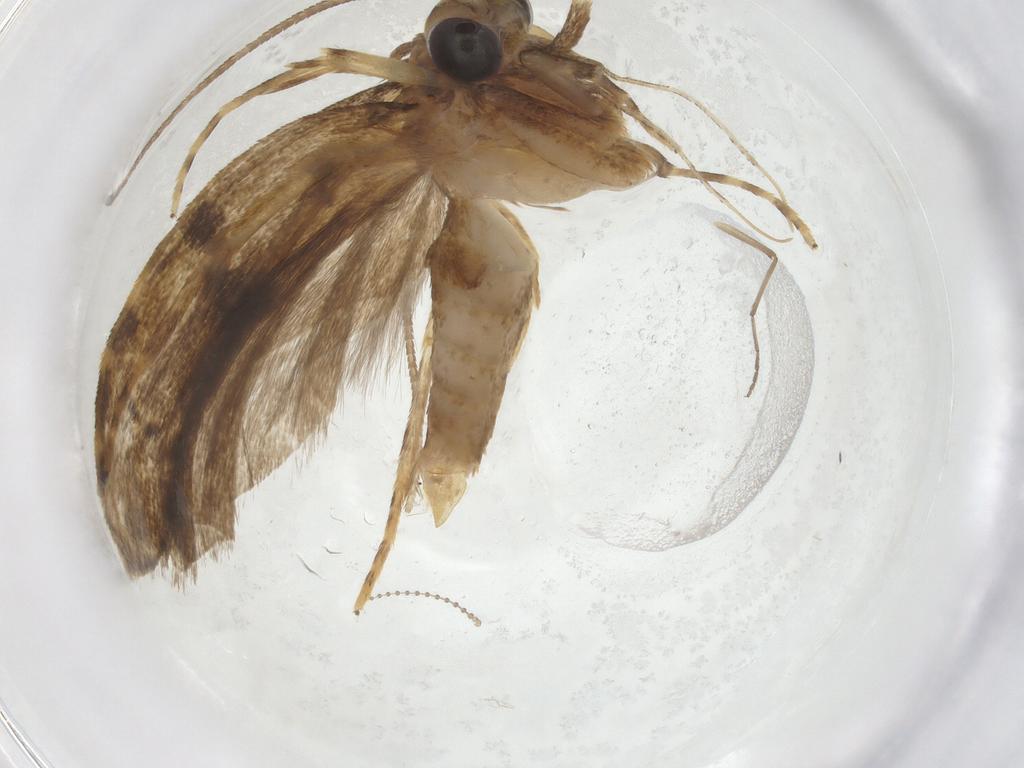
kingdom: Animalia
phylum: Arthropoda
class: Insecta
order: Lepidoptera
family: Autostichidae
